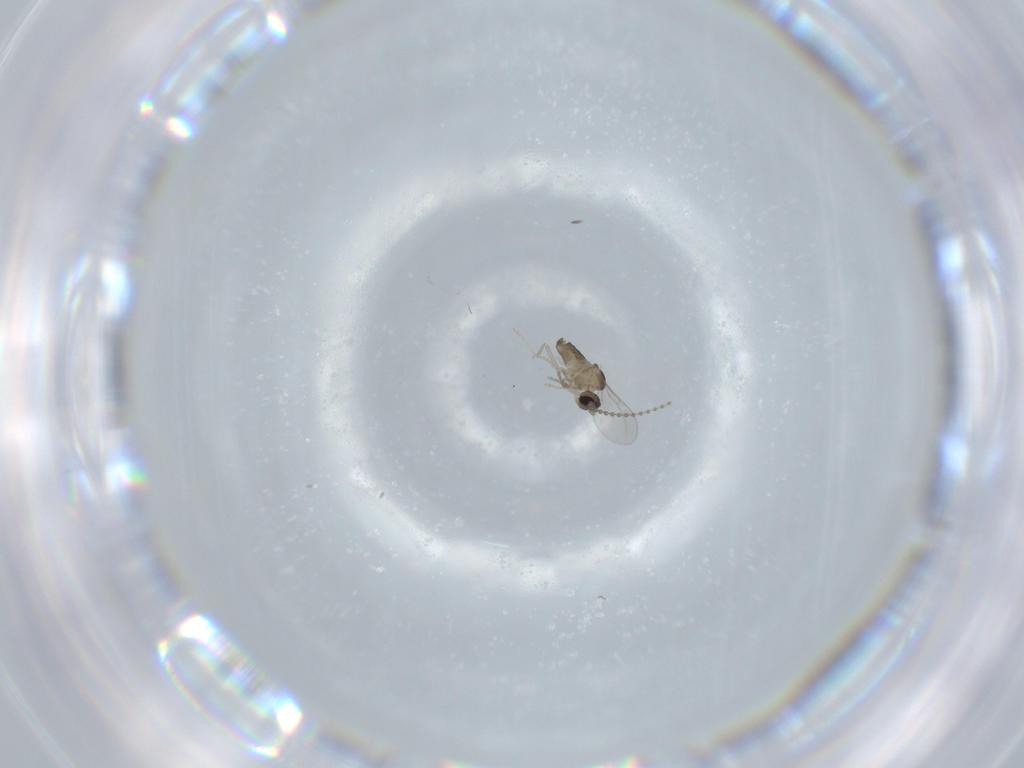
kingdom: Animalia
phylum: Arthropoda
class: Insecta
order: Diptera
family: Cecidomyiidae
